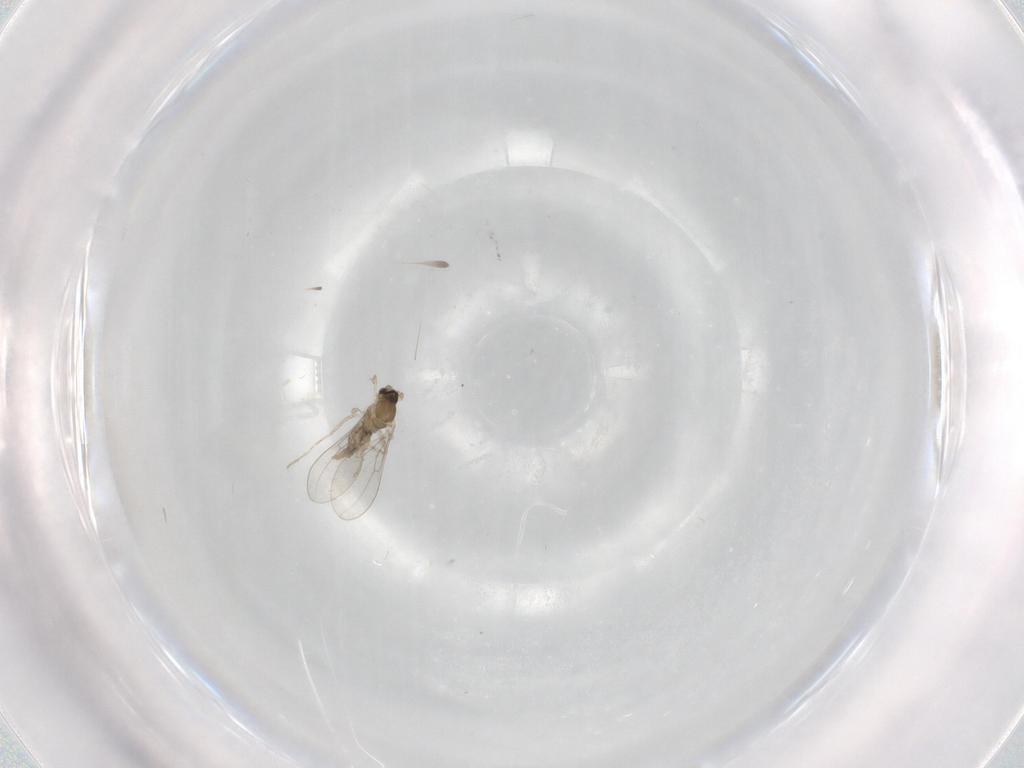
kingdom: Animalia
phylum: Arthropoda
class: Insecta
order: Diptera
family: Cecidomyiidae
